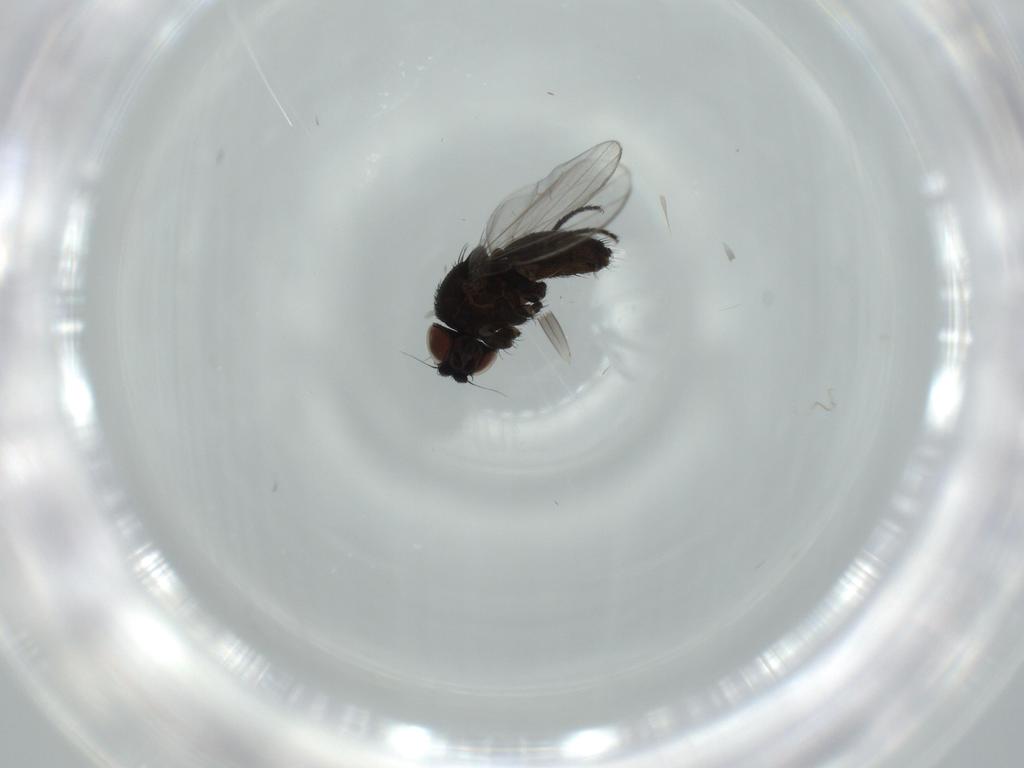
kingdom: Animalia
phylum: Arthropoda
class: Insecta
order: Diptera
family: Milichiidae
